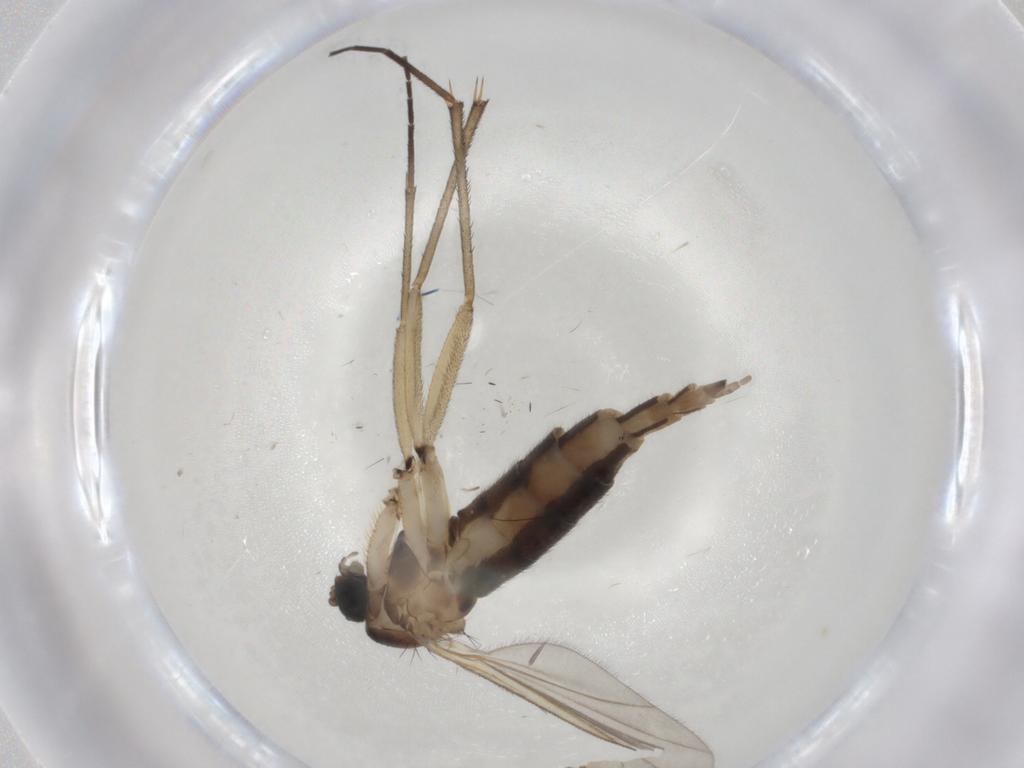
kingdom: Animalia
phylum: Arthropoda
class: Insecta
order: Diptera
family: Sciaridae
